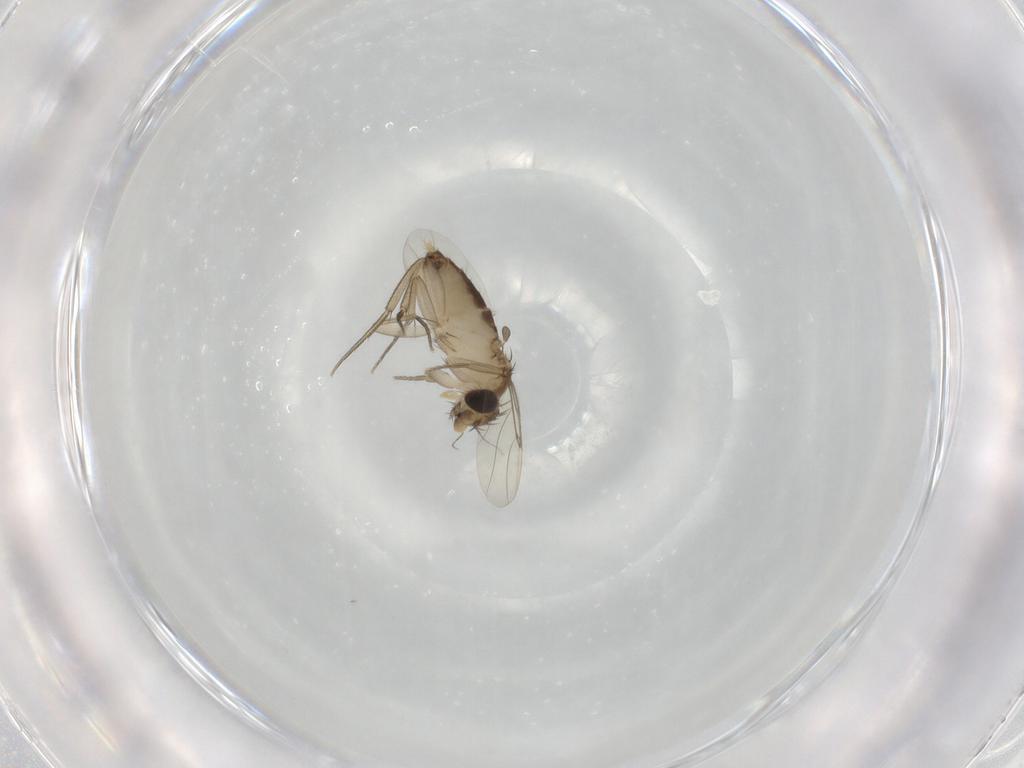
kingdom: Animalia
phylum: Arthropoda
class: Insecta
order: Diptera
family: Phoridae
